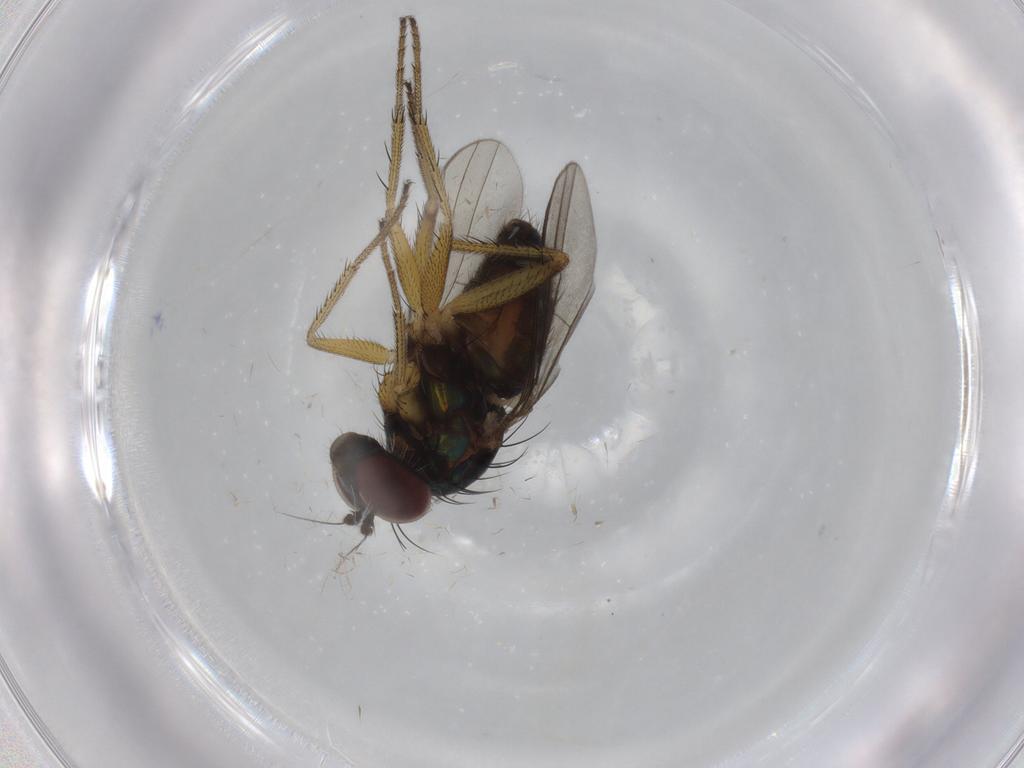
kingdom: Animalia
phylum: Arthropoda
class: Insecta
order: Diptera
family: Dolichopodidae
